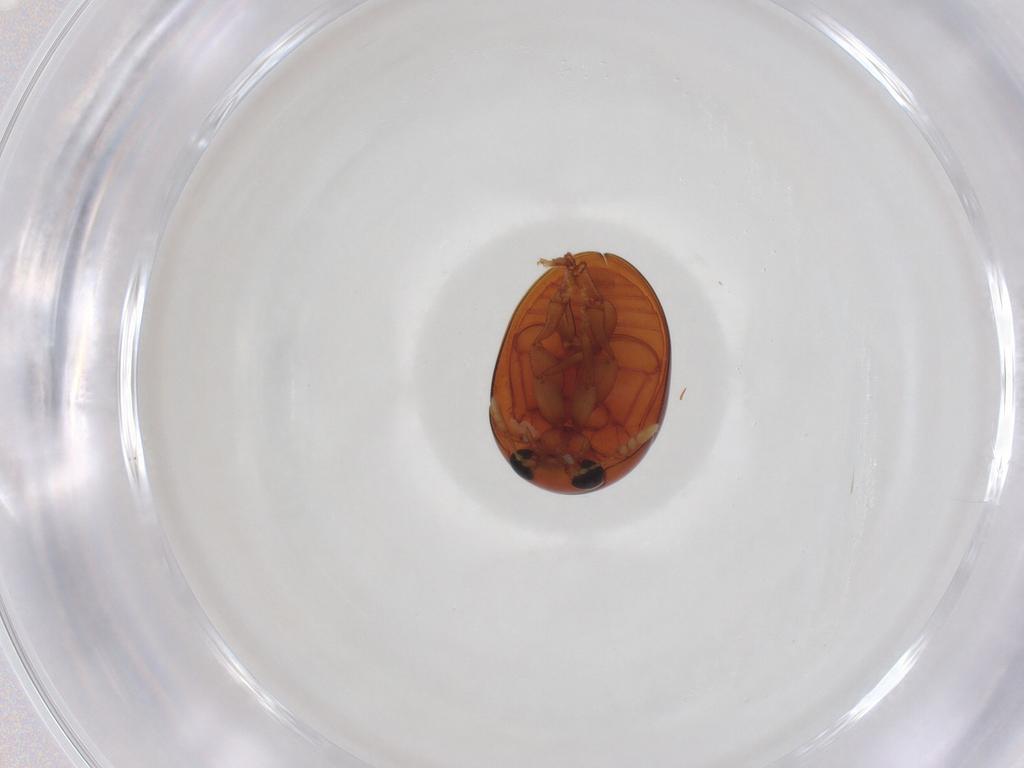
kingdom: Animalia
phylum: Arthropoda
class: Insecta
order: Coleoptera
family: Phalacridae
